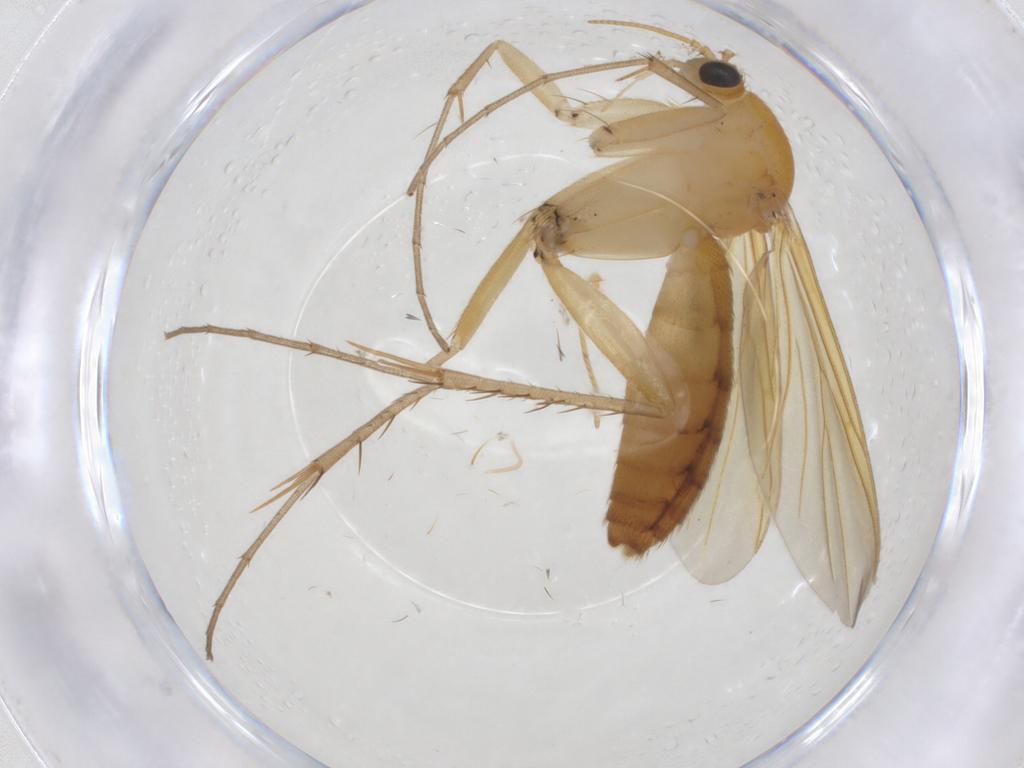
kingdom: Animalia
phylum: Arthropoda
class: Insecta
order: Diptera
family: Mycetophilidae
